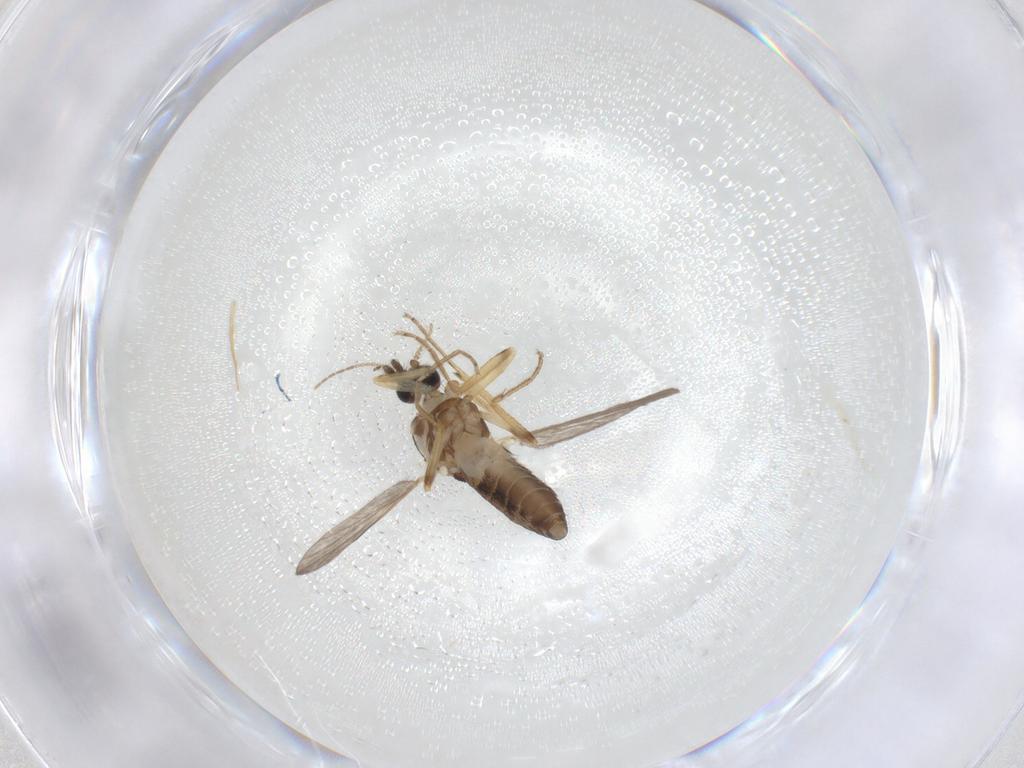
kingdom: Animalia
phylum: Arthropoda
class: Insecta
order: Diptera
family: Ceratopogonidae
